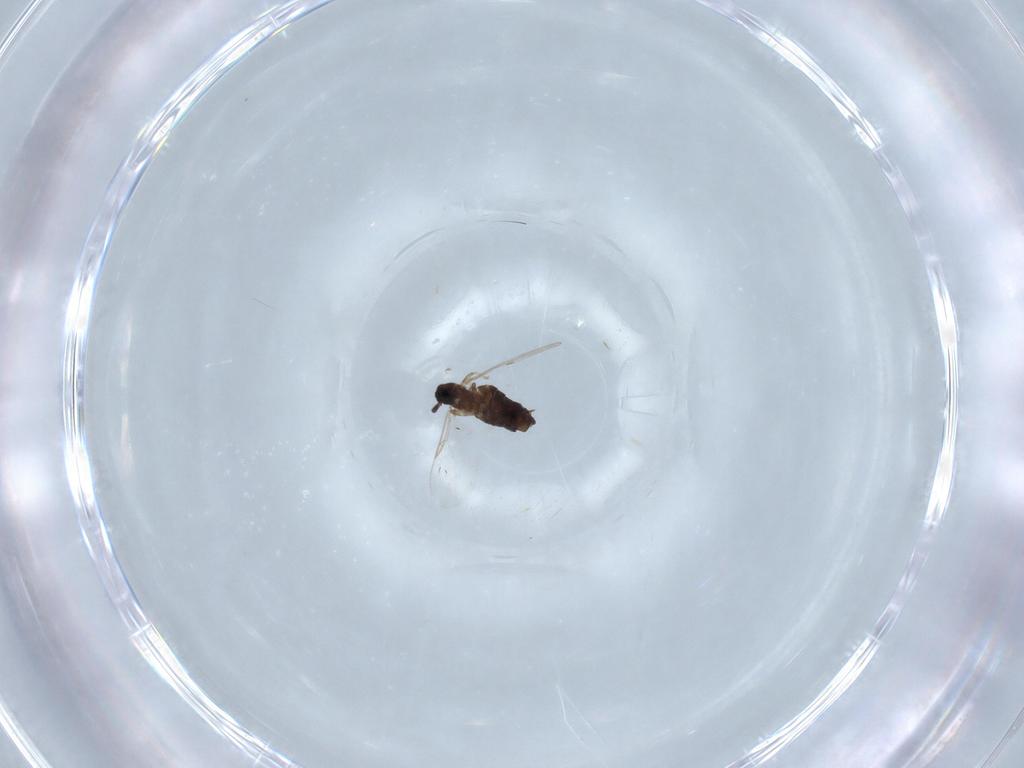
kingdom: Animalia
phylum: Arthropoda
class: Insecta
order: Diptera
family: Scatopsidae
